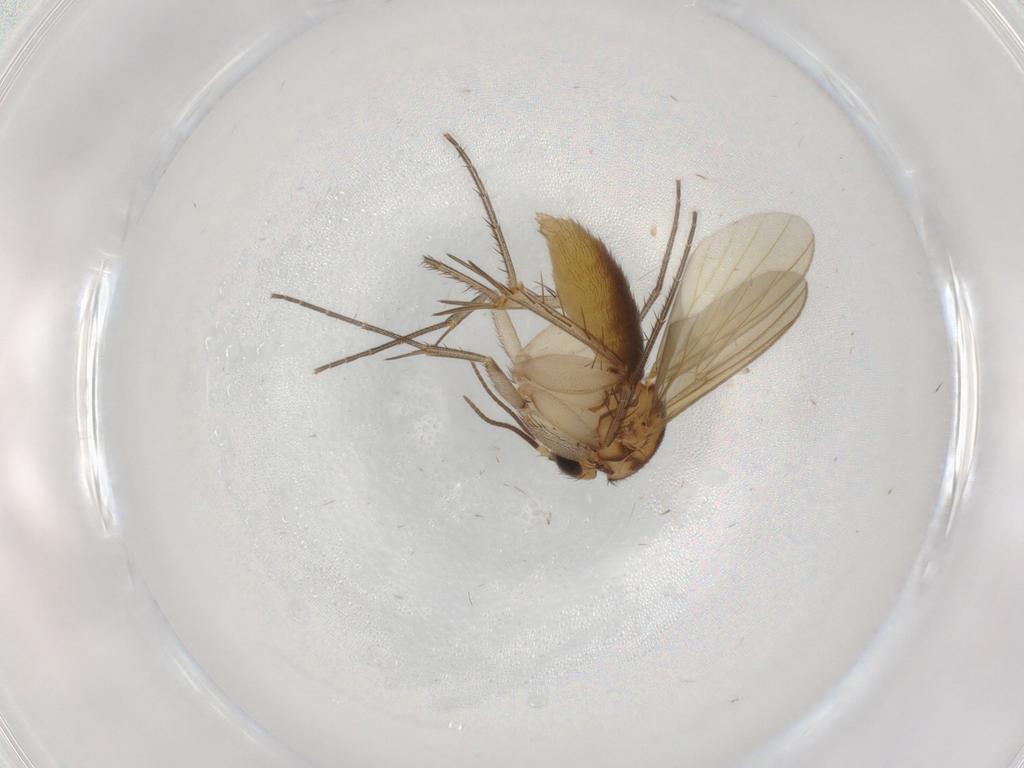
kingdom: Animalia
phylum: Arthropoda
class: Insecta
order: Diptera
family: Mycetophilidae
